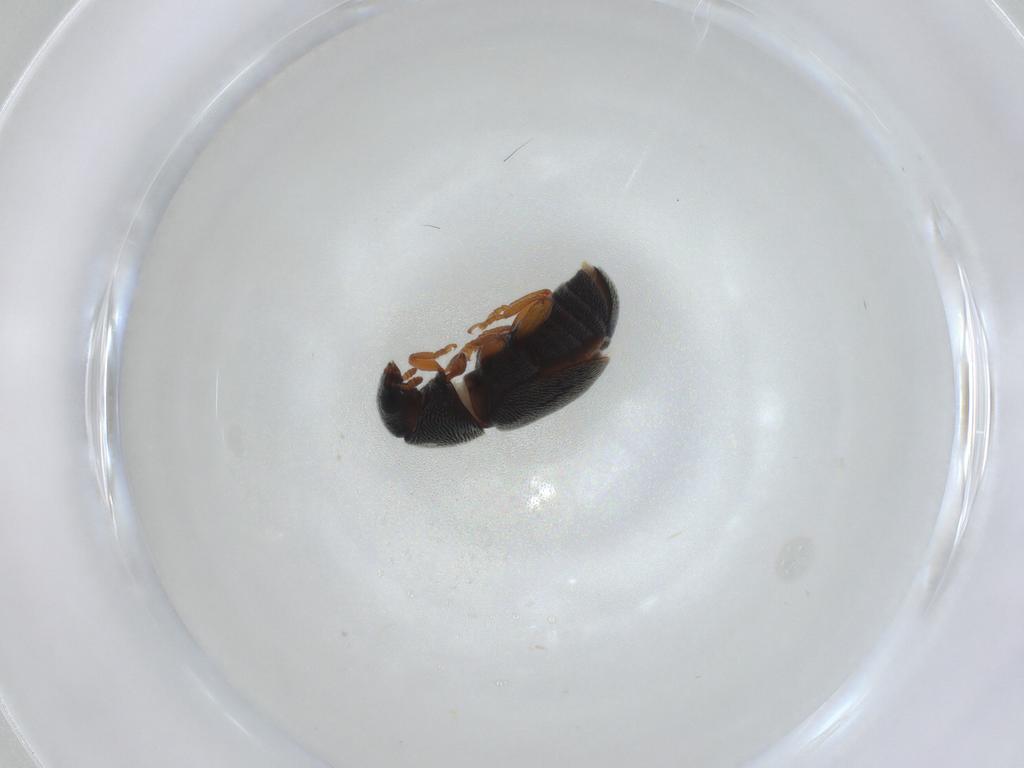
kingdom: Animalia
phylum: Arthropoda
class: Insecta
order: Coleoptera
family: Anthribidae
